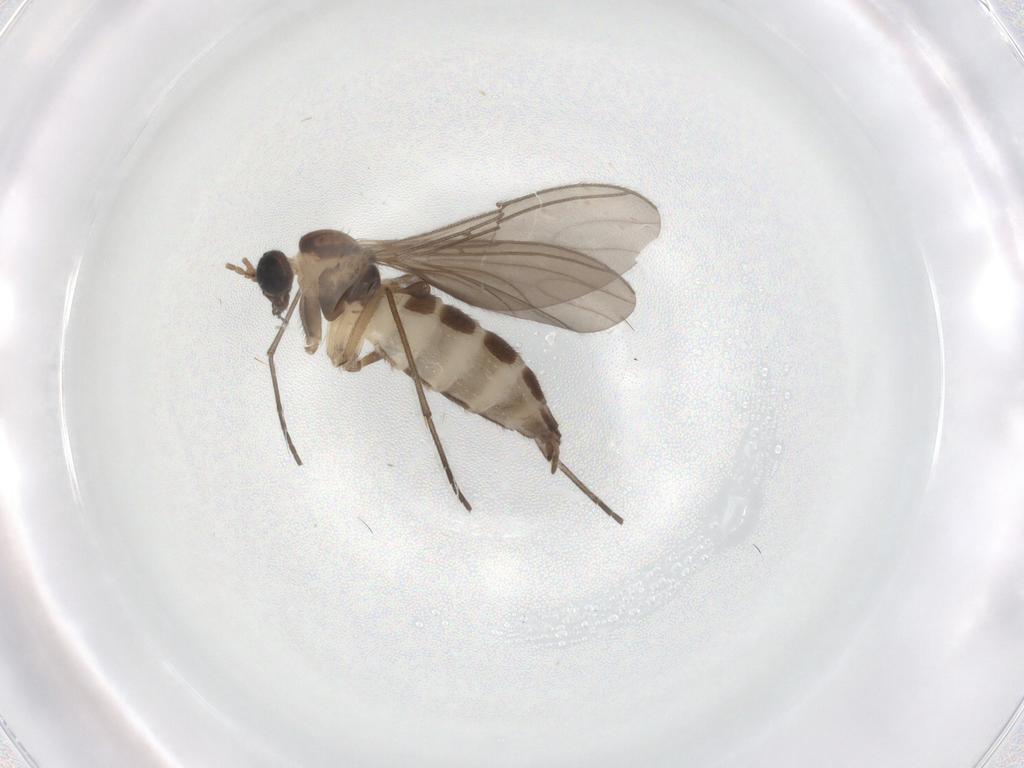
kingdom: Animalia
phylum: Arthropoda
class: Insecta
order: Diptera
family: Sciaridae
